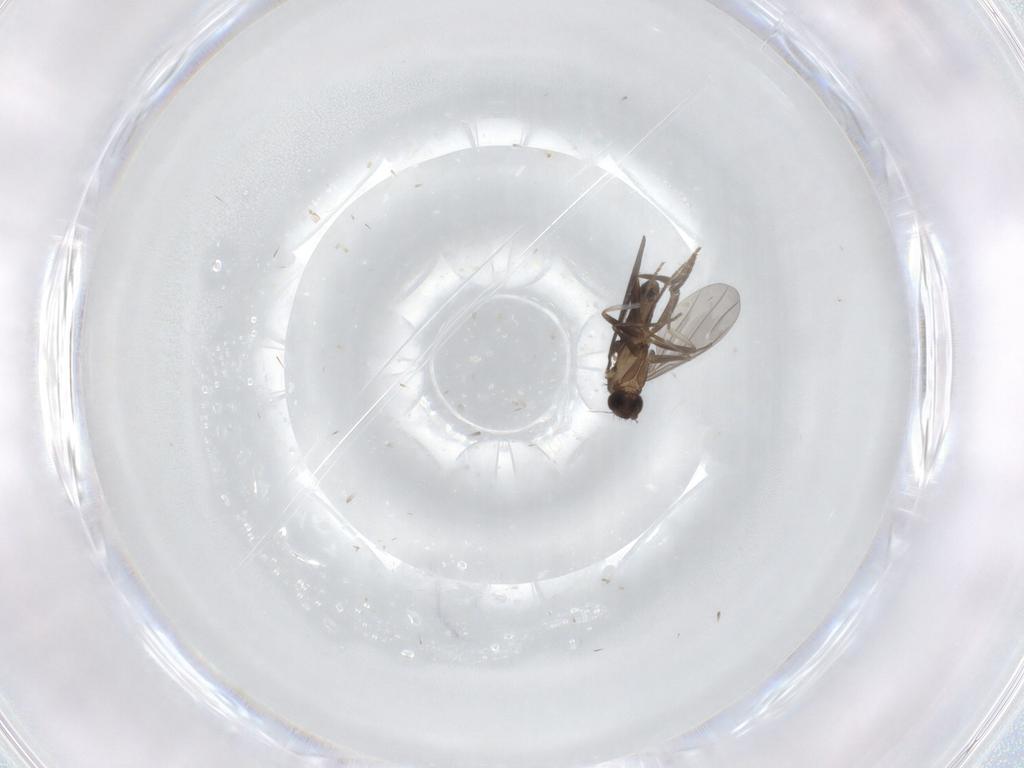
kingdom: Animalia
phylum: Arthropoda
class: Insecta
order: Diptera
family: Phoridae
